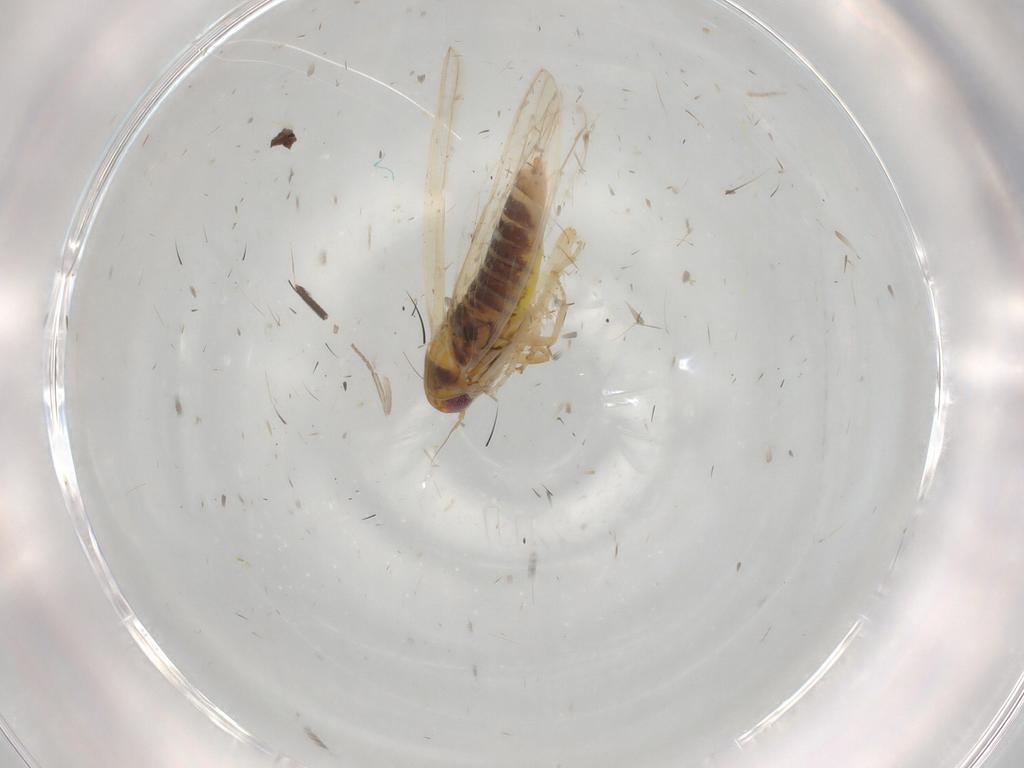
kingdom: Animalia
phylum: Arthropoda
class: Insecta
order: Hemiptera
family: Cicadellidae
